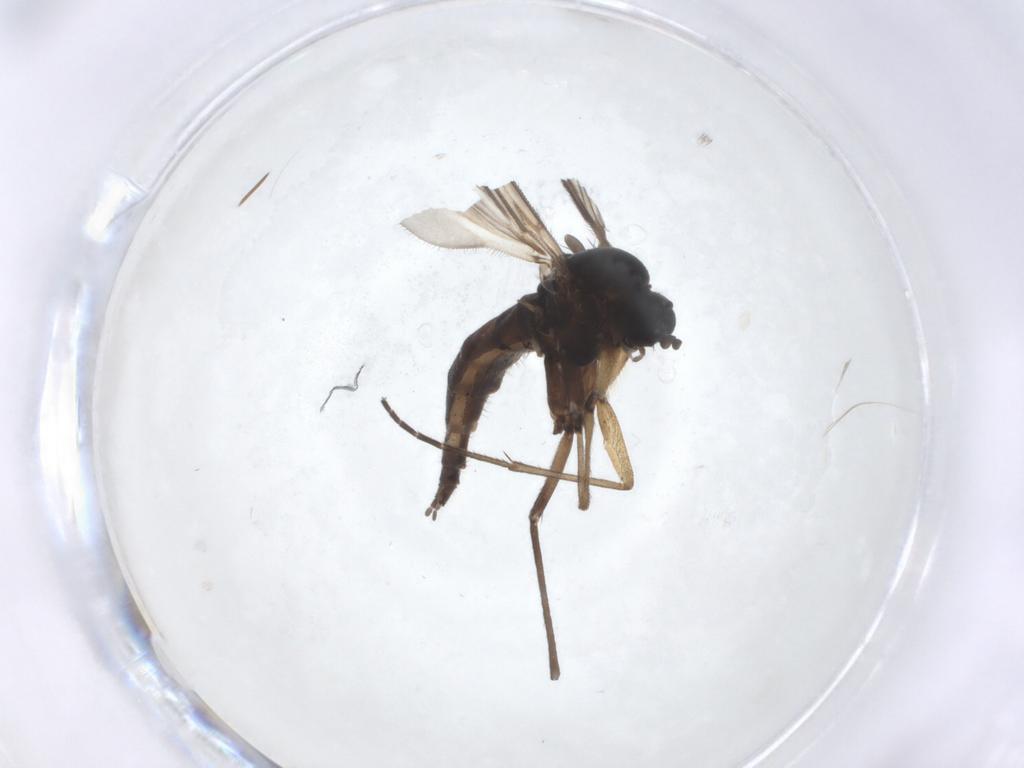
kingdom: Animalia
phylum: Arthropoda
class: Insecta
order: Diptera
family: Sciaridae
